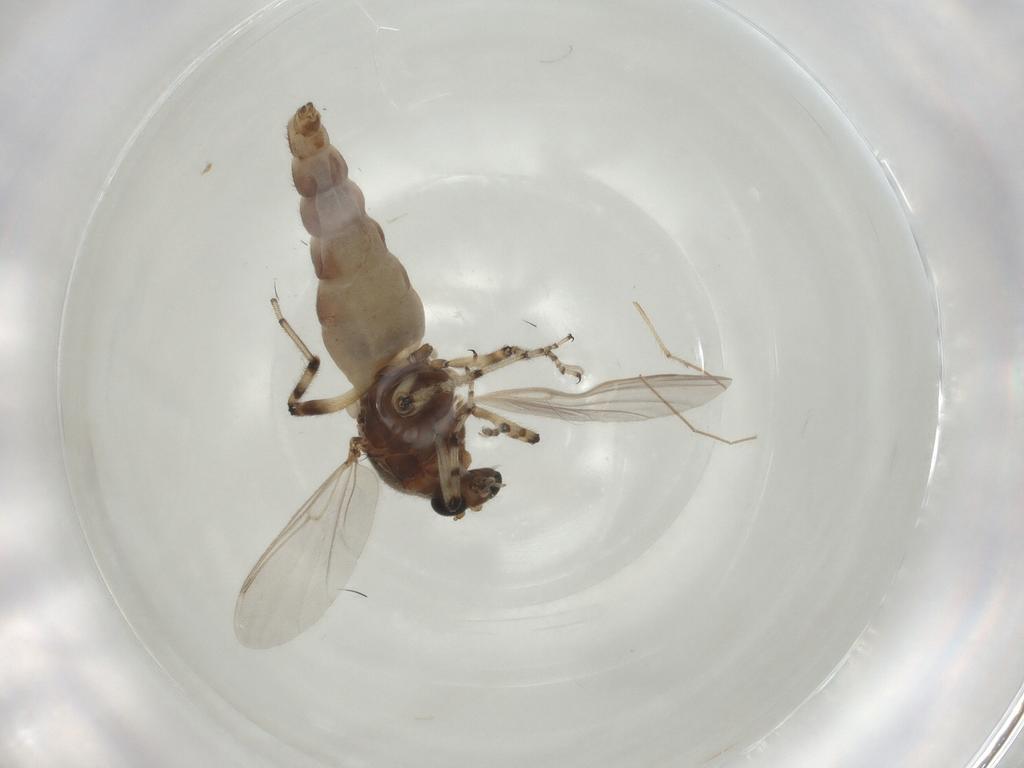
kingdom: Animalia
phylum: Arthropoda
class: Insecta
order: Diptera
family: Ceratopogonidae
